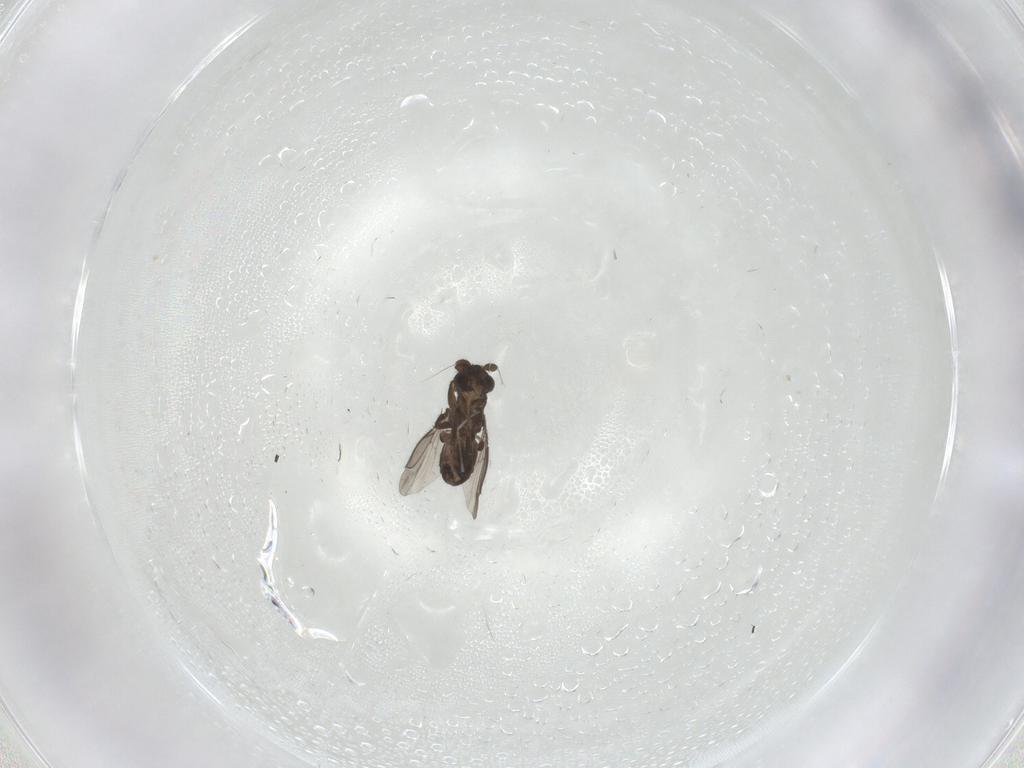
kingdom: Animalia
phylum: Arthropoda
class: Insecta
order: Diptera
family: Sphaeroceridae
